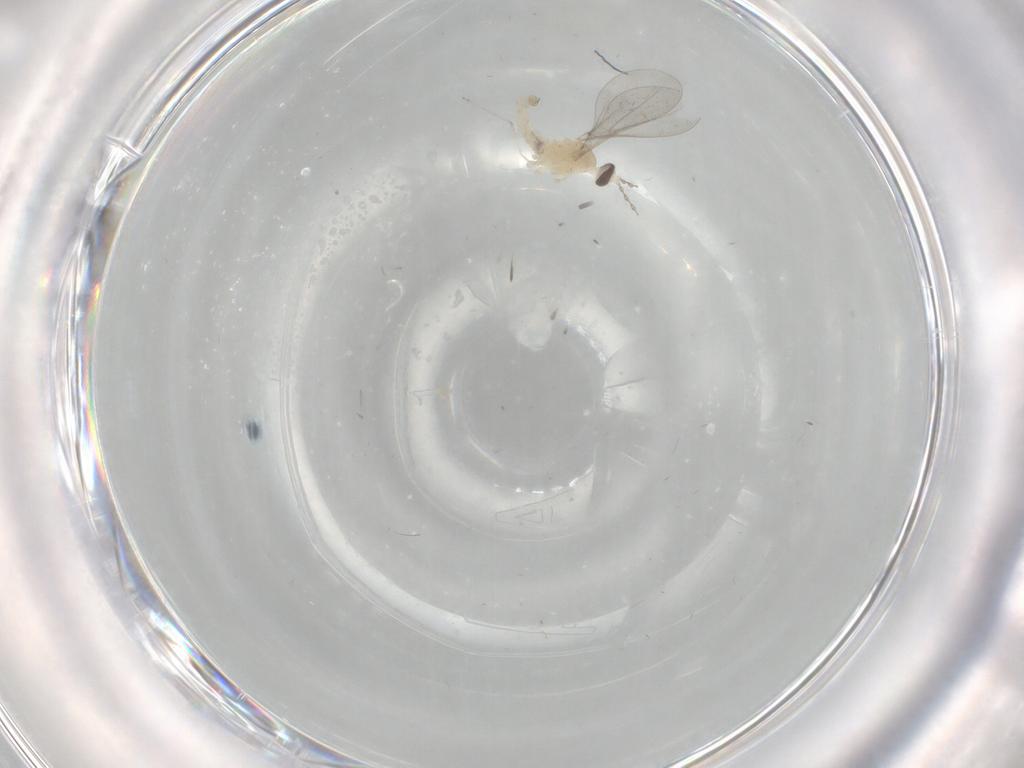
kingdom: Animalia
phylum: Arthropoda
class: Insecta
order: Diptera
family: Cecidomyiidae
